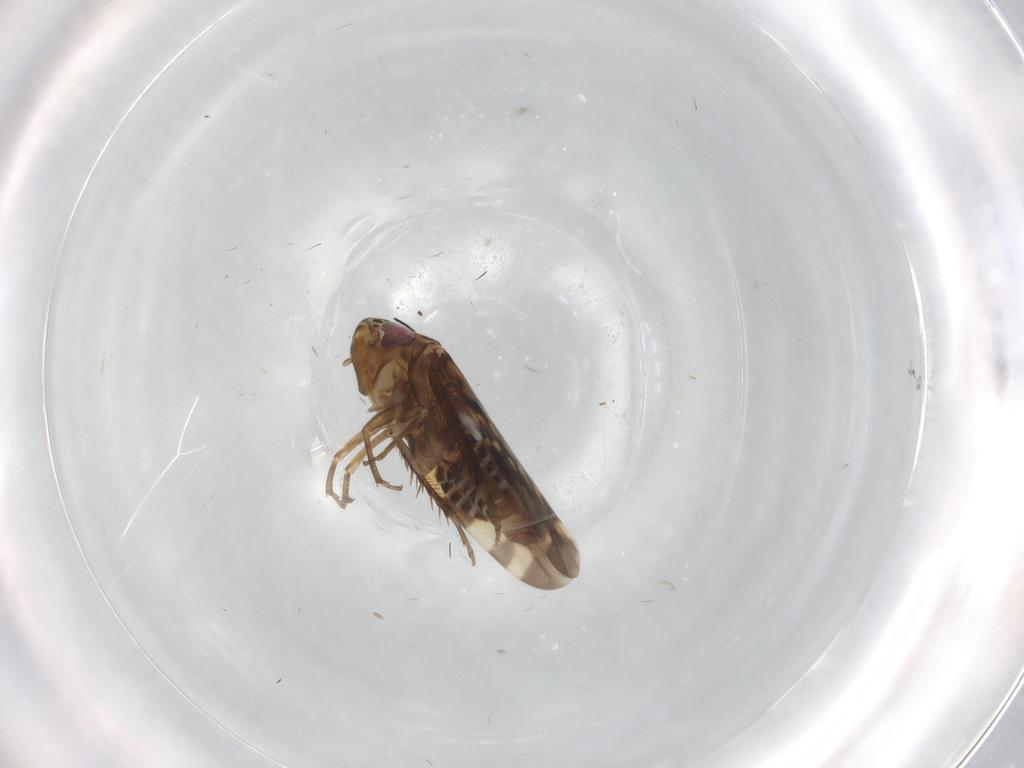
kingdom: Animalia
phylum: Arthropoda
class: Insecta
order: Hemiptera
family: Cicadellidae
